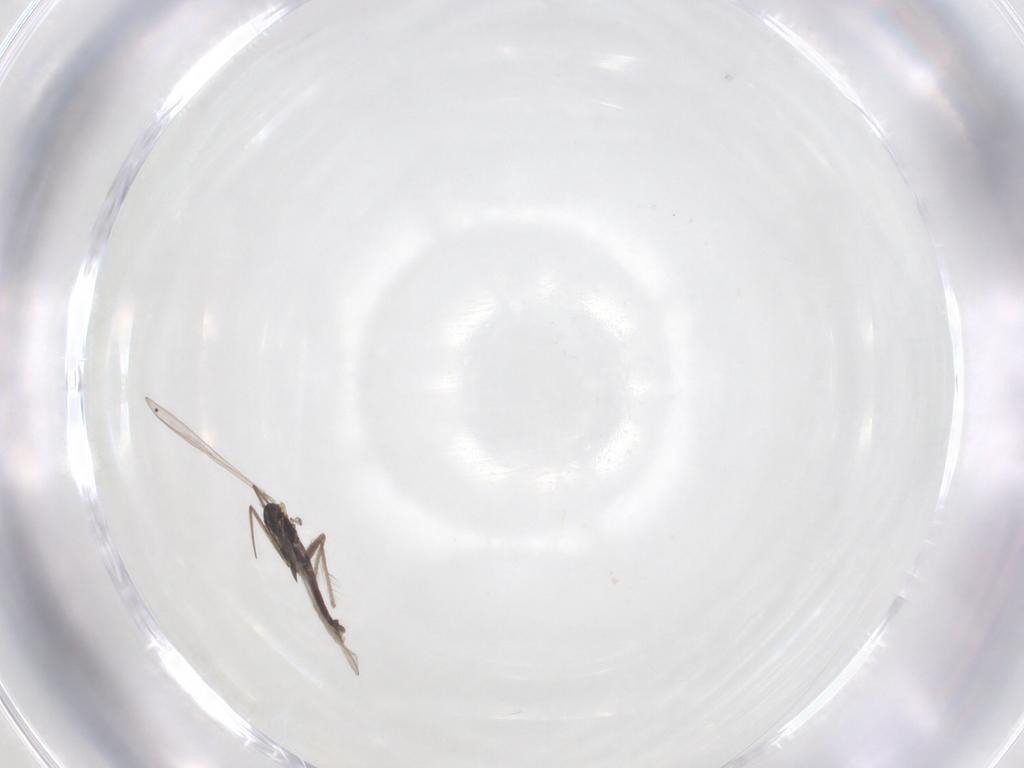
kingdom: Animalia
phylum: Arthropoda
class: Insecta
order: Diptera
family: Chironomidae
